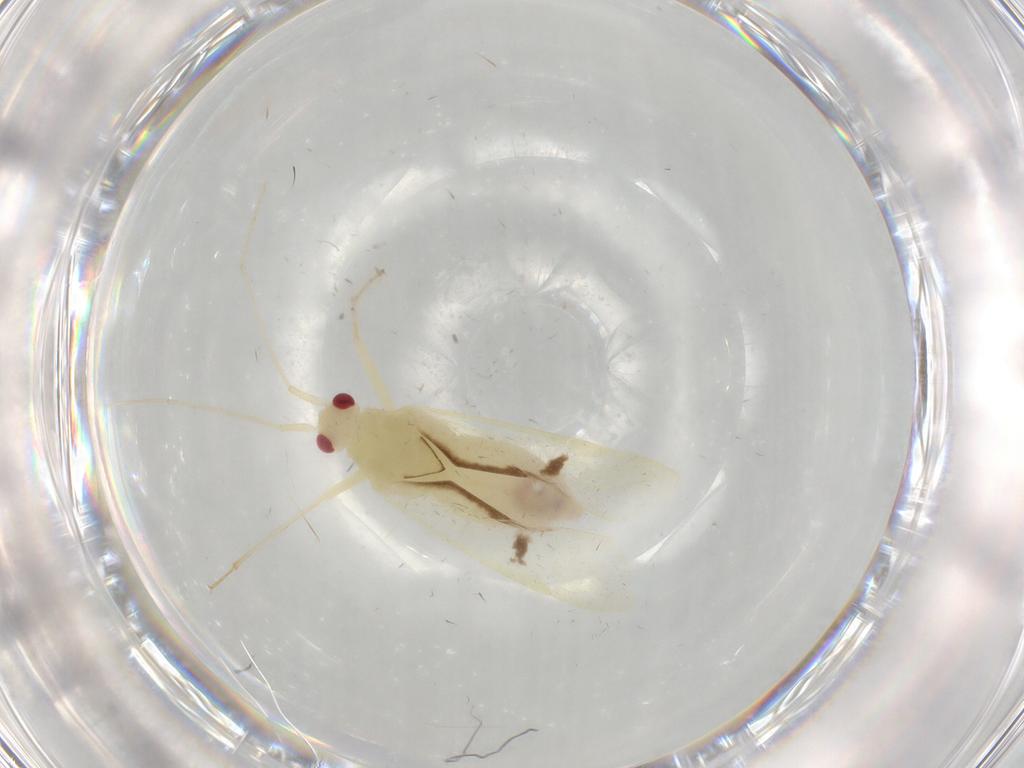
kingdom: Animalia
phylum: Arthropoda
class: Insecta
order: Hemiptera
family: Miridae
